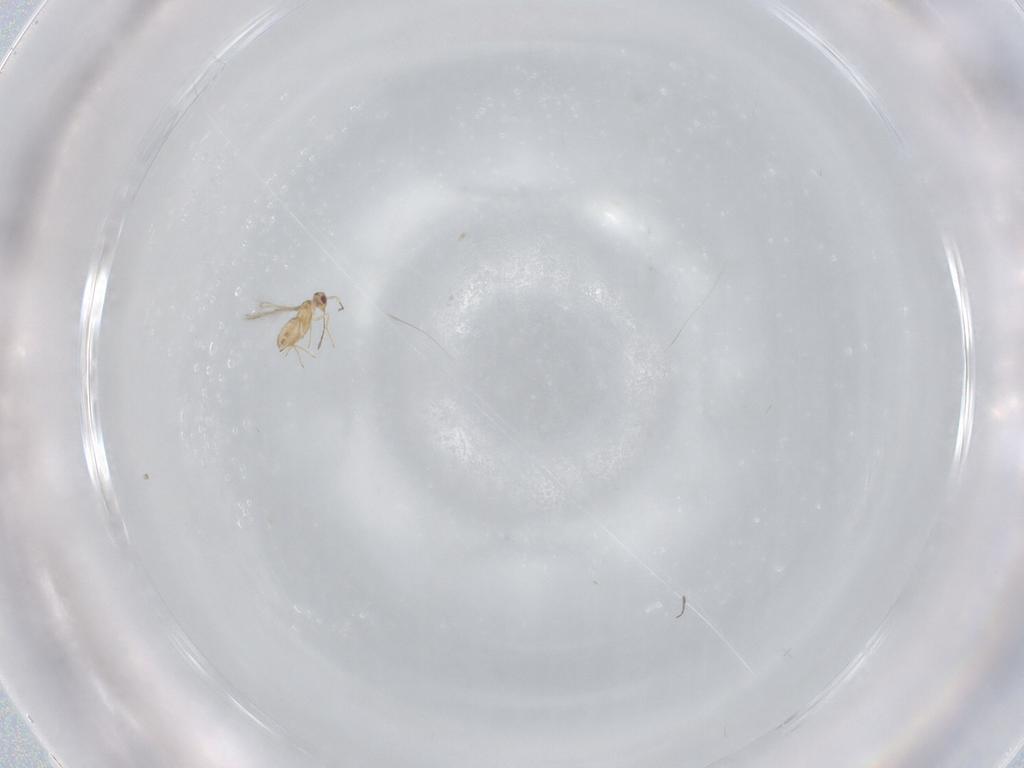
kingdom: Animalia
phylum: Arthropoda
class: Insecta
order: Hymenoptera
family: Mymaridae
